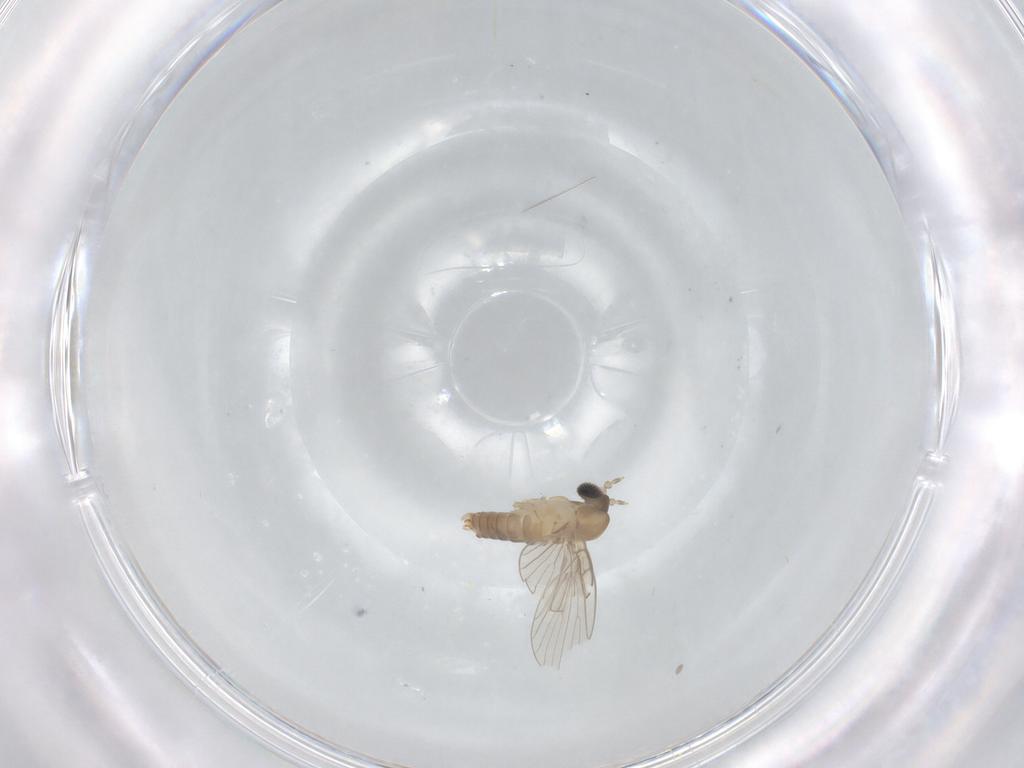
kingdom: Animalia
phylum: Arthropoda
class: Insecta
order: Diptera
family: Psychodidae
